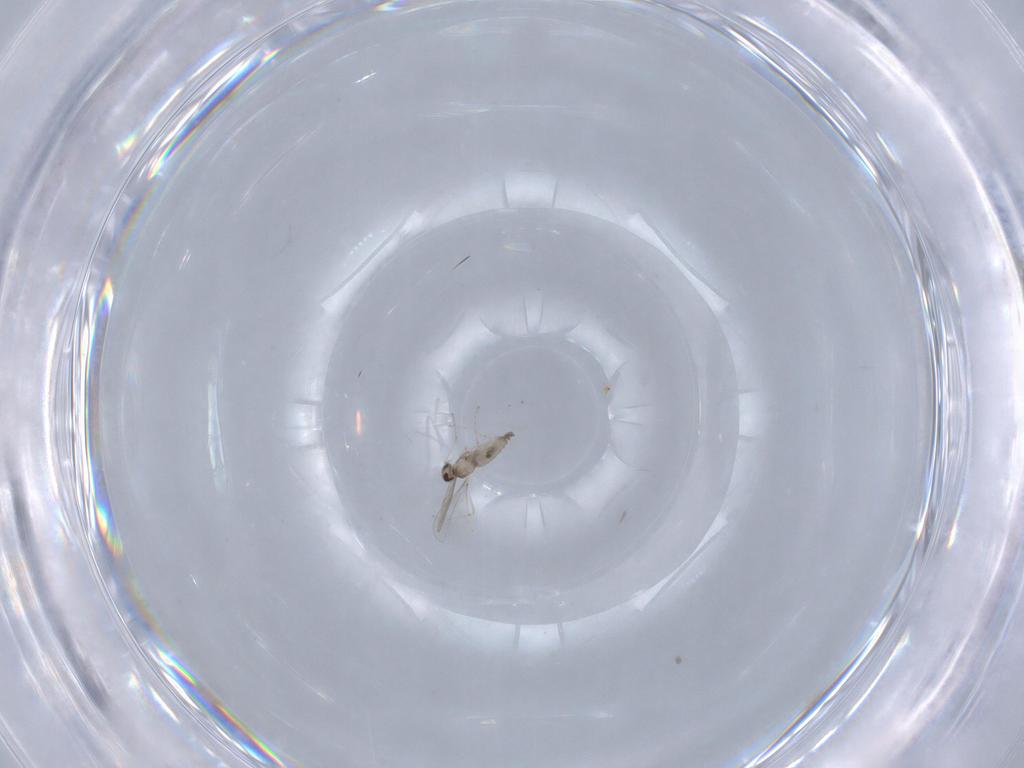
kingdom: Animalia
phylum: Arthropoda
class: Insecta
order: Diptera
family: Cecidomyiidae
